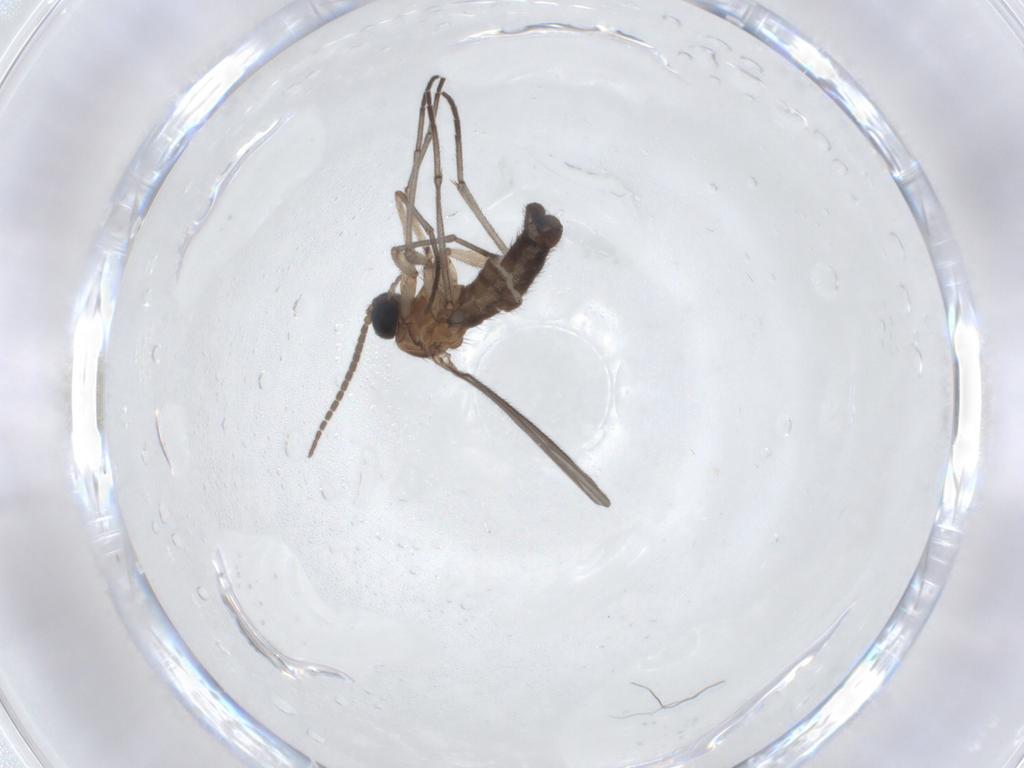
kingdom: Animalia
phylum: Arthropoda
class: Insecta
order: Diptera
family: Sciaridae
